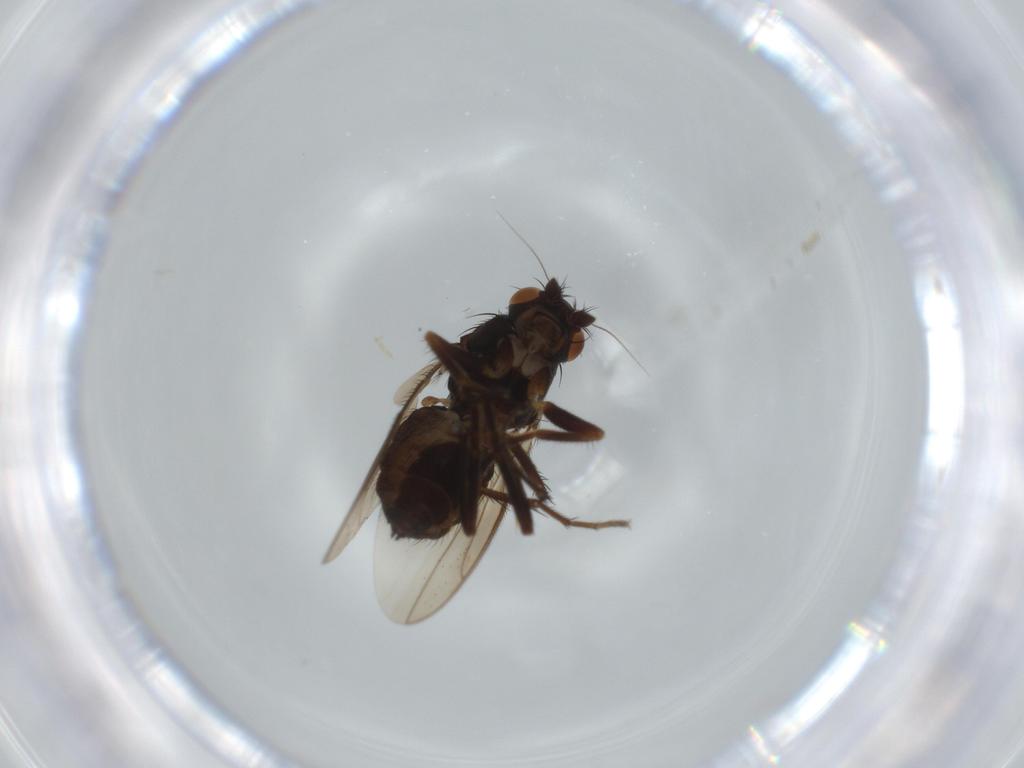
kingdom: Animalia
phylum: Arthropoda
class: Insecta
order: Diptera
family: Sphaeroceridae
